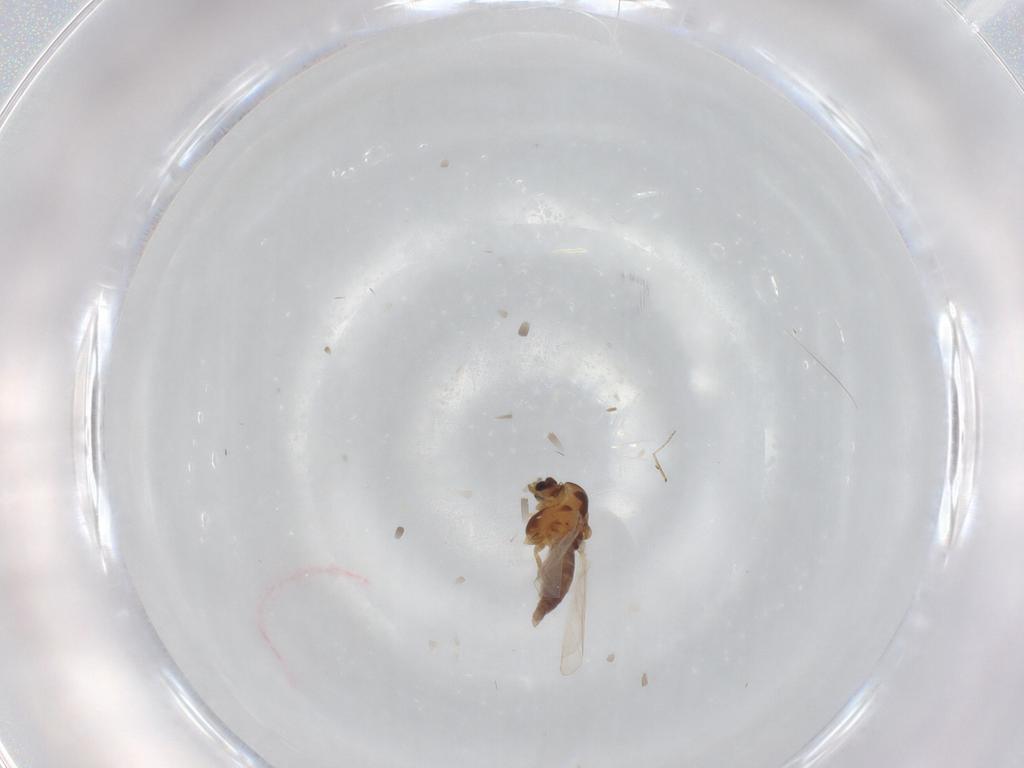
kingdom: Animalia
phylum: Arthropoda
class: Insecta
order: Diptera
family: Chironomidae
